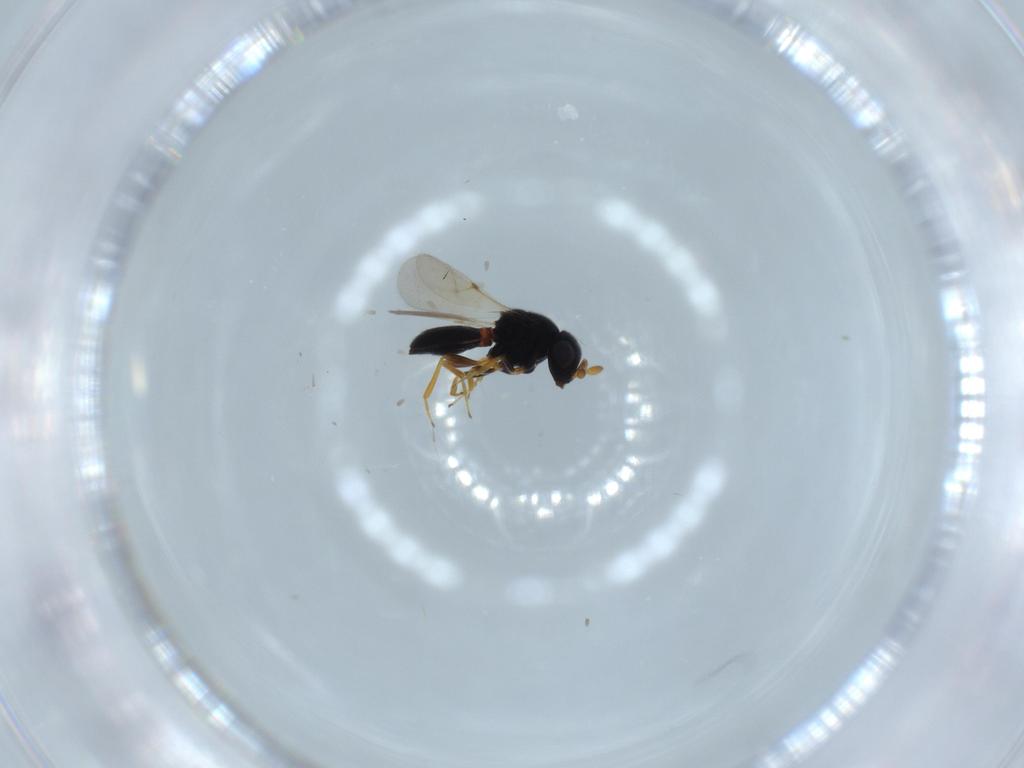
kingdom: Animalia
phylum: Arthropoda
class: Insecta
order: Hymenoptera
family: Scelionidae
